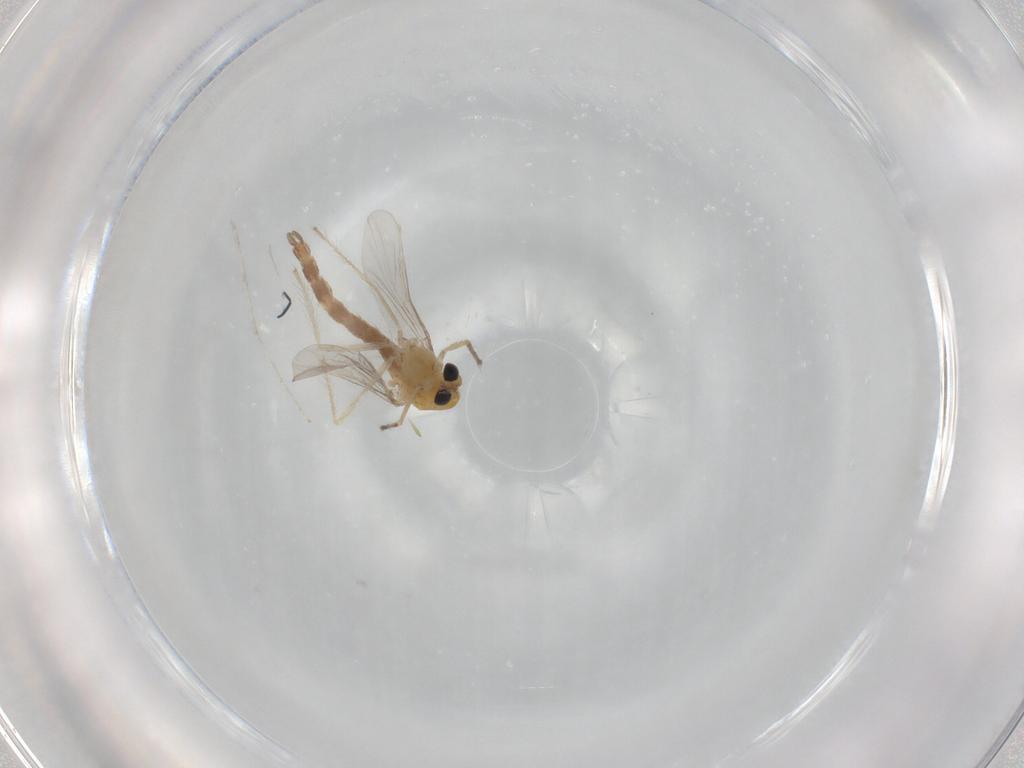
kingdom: Animalia
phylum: Arthropoda
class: Insecta
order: Diptera
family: Chironomidae
